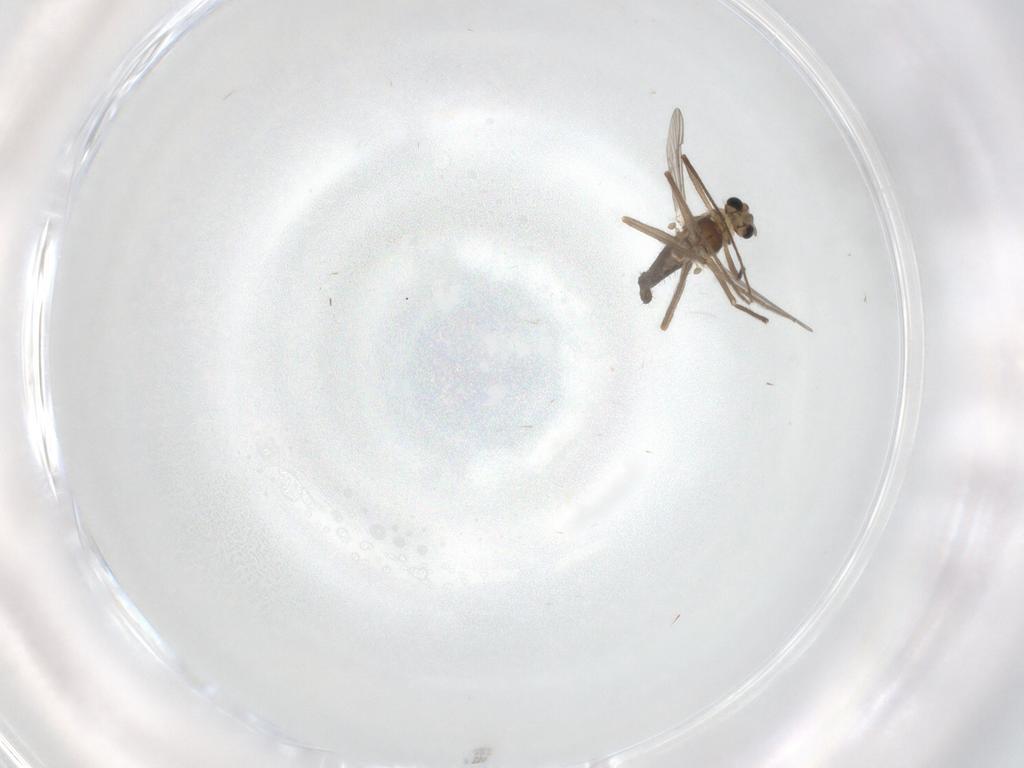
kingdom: Animalia
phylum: Arthropoda
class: Insecta
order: Diptera
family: Chironomidae
